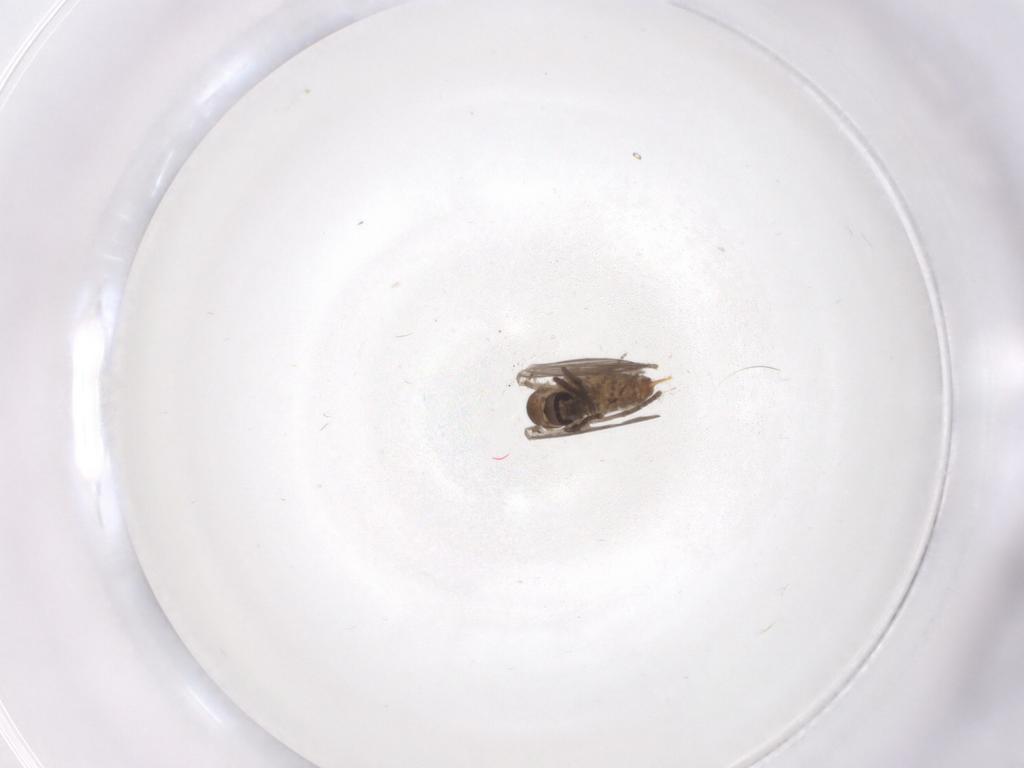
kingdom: Animalia
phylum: Arthropoda
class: Insecta
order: Diptera
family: Psychodidae
